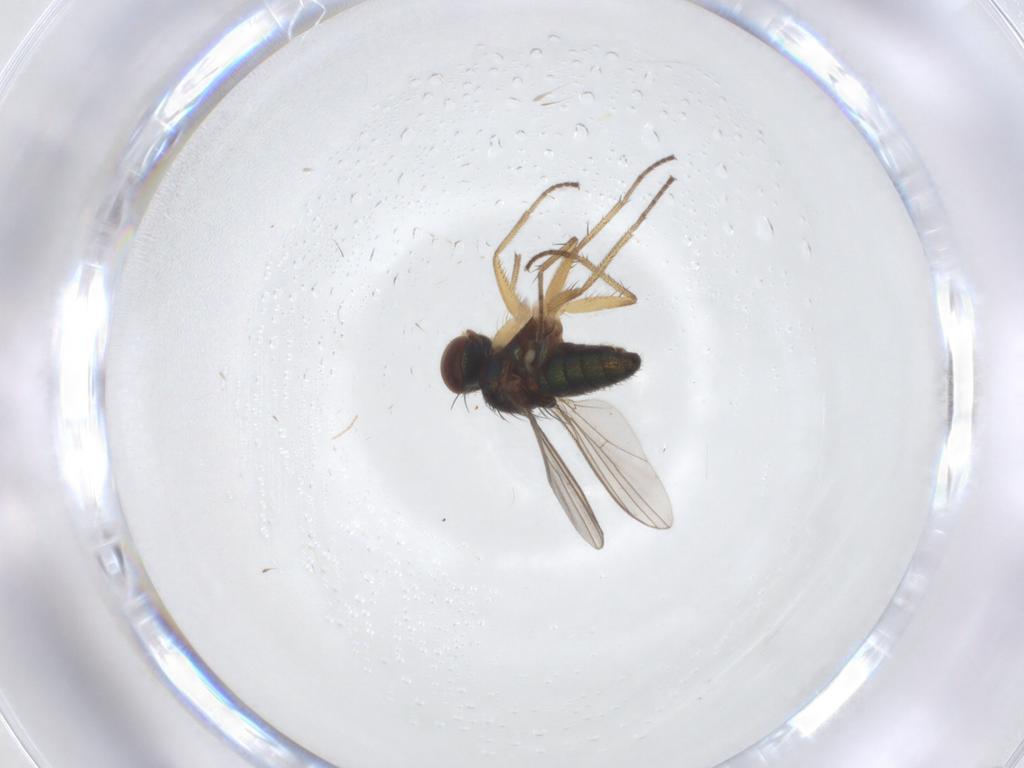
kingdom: Animalia
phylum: Arthropoda
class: Insecta
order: Diptera
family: Dolichopodidae
